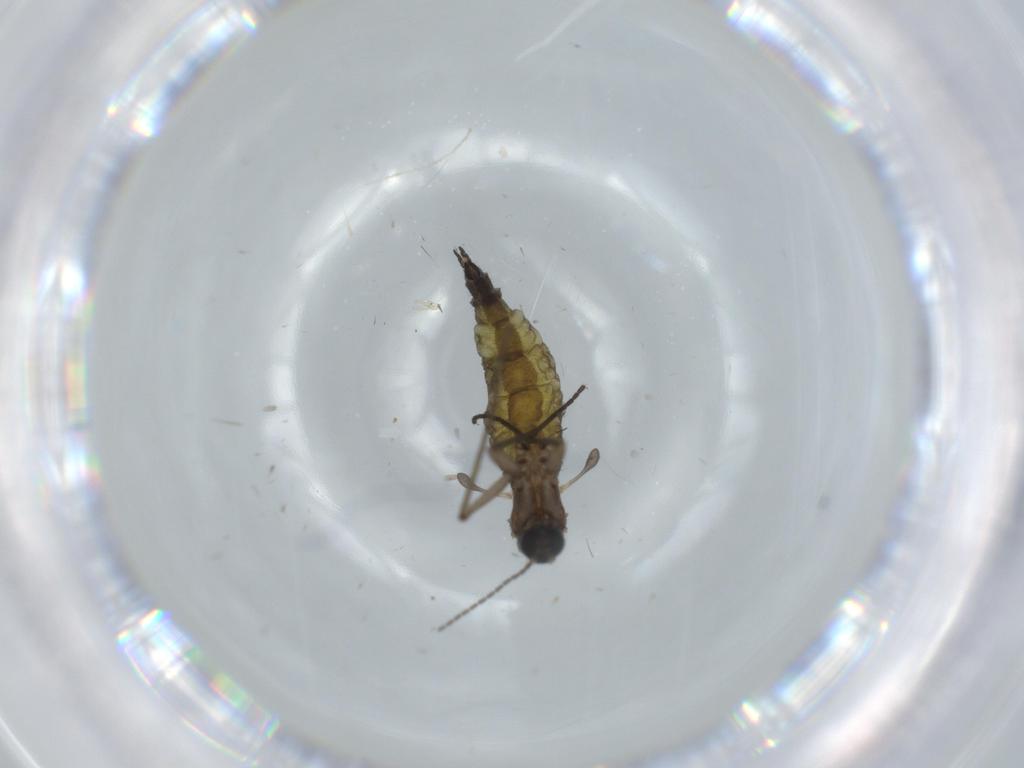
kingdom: Animalia
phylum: Arthropoda
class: Insecta
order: Diptera
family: Sciaridae
